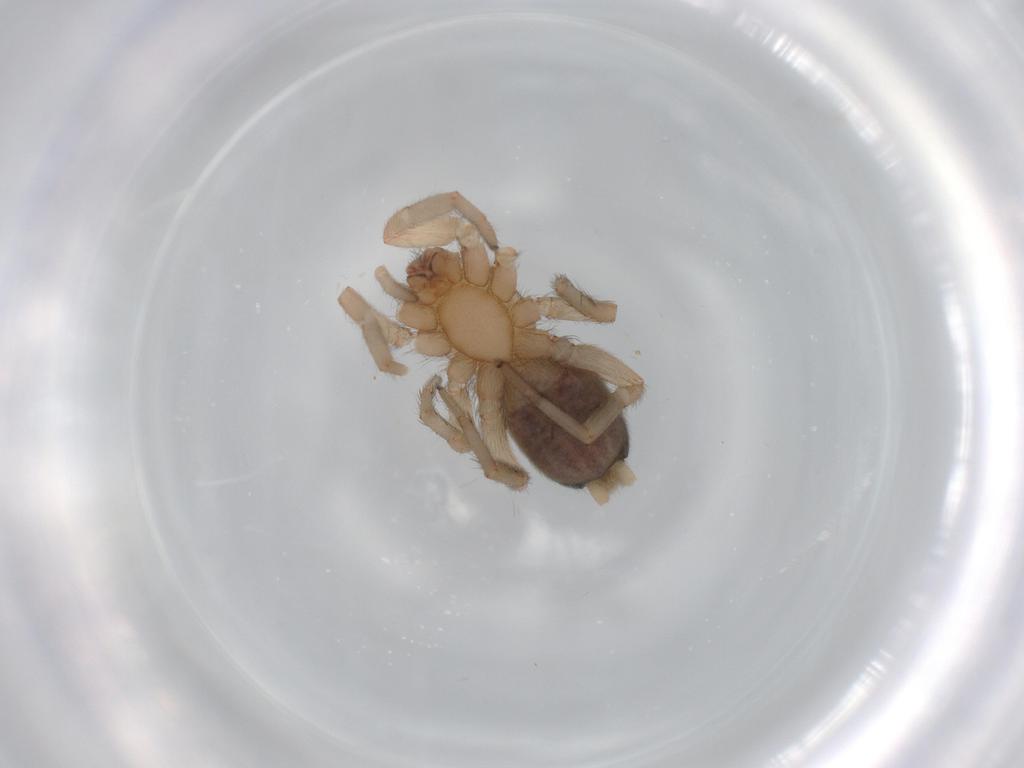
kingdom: Animalia
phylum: Arthropoda
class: Arachnida
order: Araneae
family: Gnaphosidae
